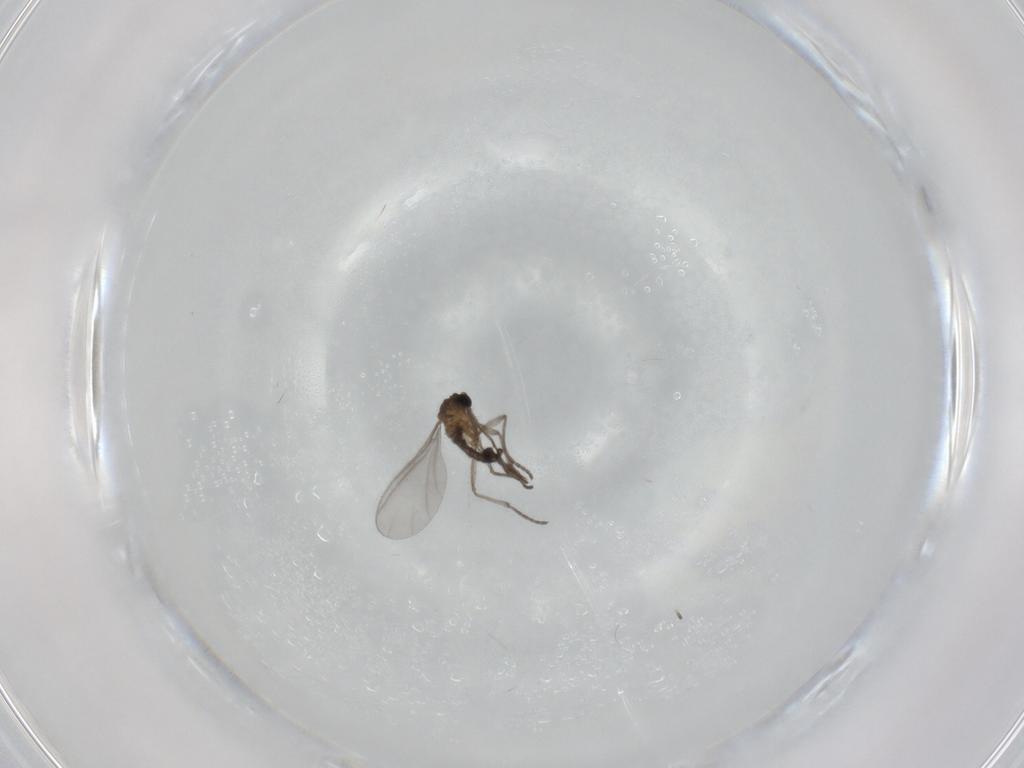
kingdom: Animalia
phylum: Arthropoda
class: Insecta
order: Diptera
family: Sciaridae
